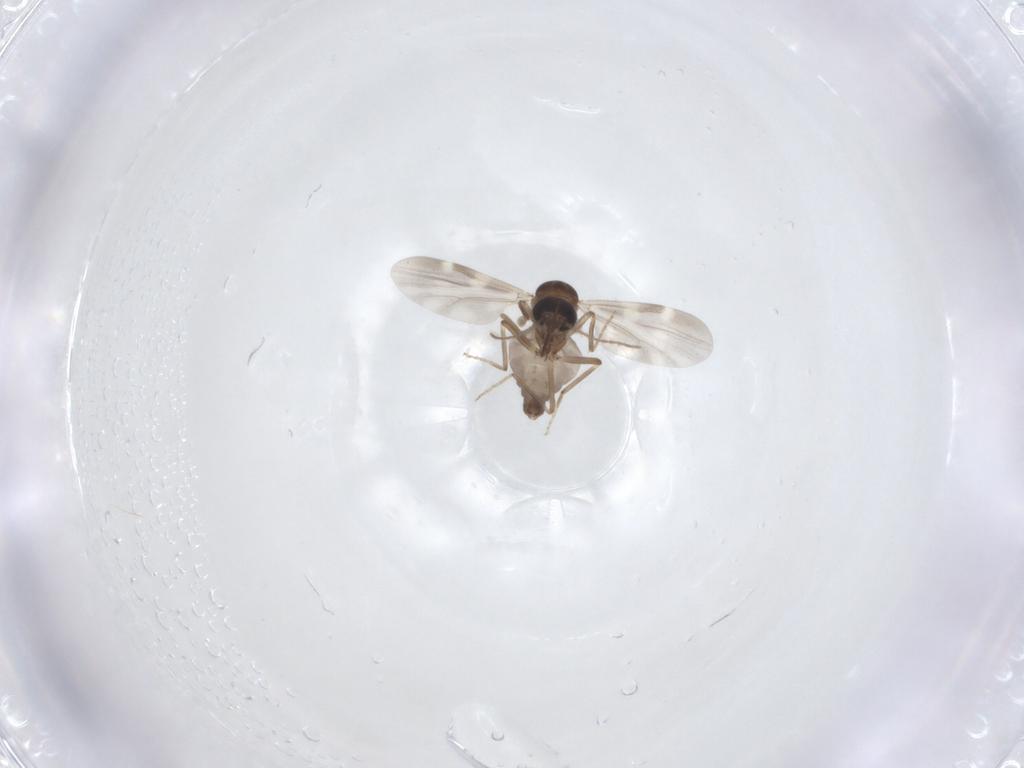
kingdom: Animalia
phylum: Arthropoda
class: Insecta
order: Diptera
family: Ceratopogonidae
